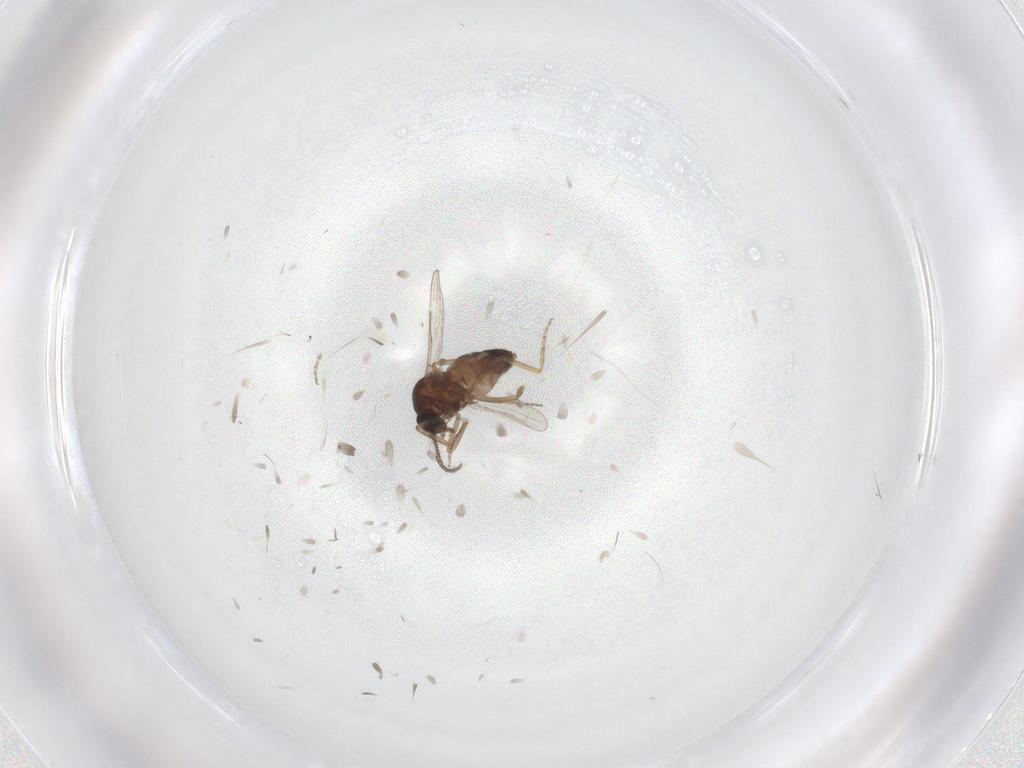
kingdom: Animalia
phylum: Arthropoda
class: Insecta
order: Diptera
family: Ceratopogonidae
